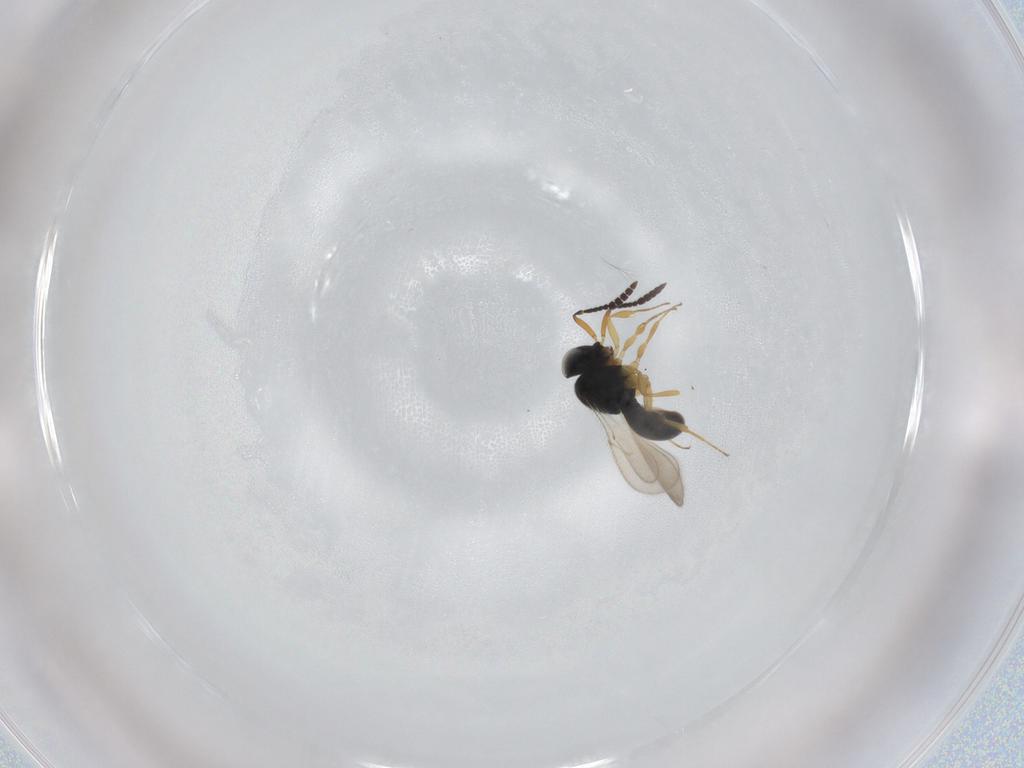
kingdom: Animalia
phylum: Arthropoda
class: Insecta
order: Hymenoptera
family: Scelionidae
